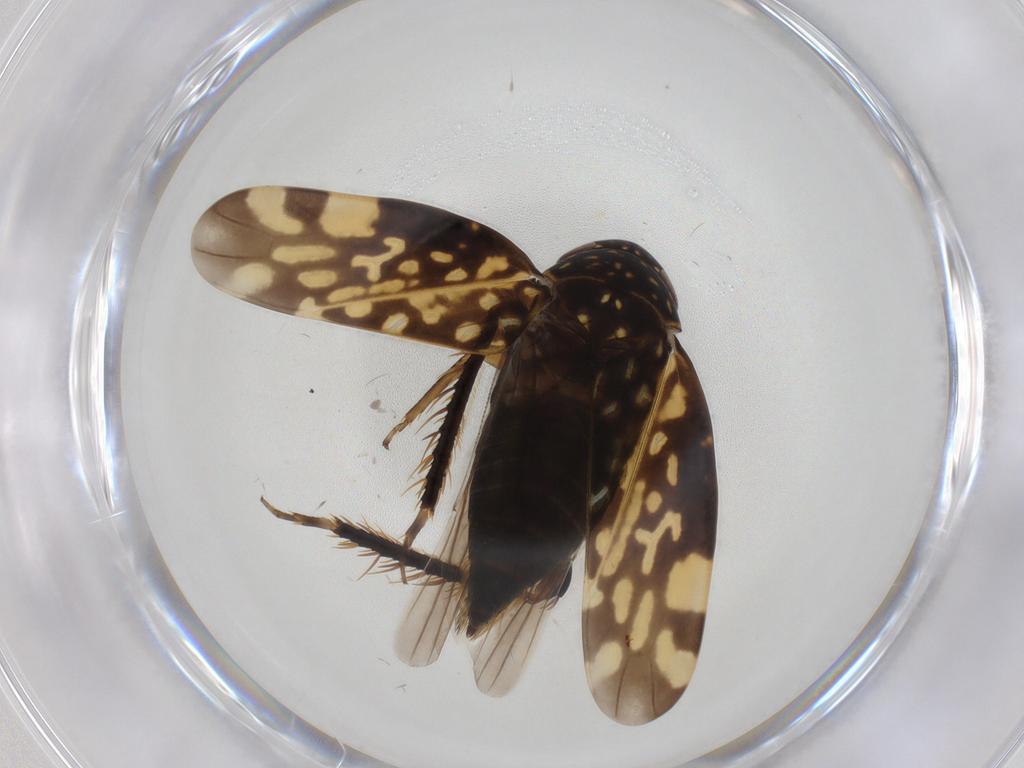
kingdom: Animalia
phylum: Arthropoda
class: Insecta
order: Hemiptera
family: Cicadellidae
